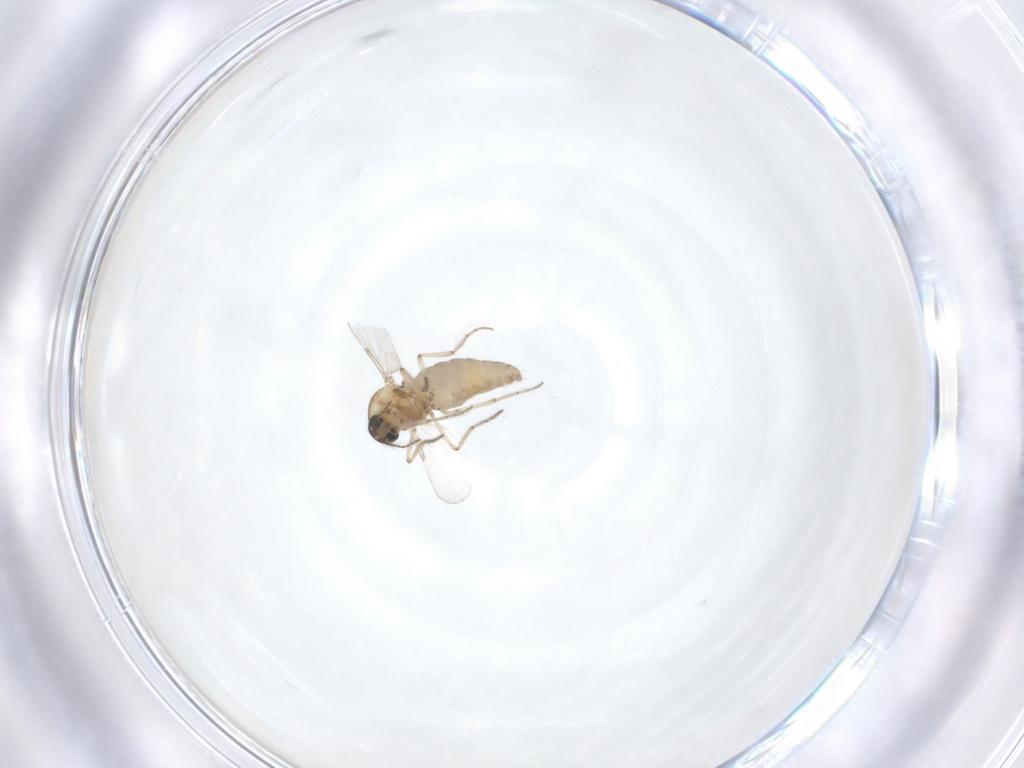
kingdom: Animalia
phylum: Arthropoda
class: Insecta
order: Diptera
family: Ceratopogonidae
